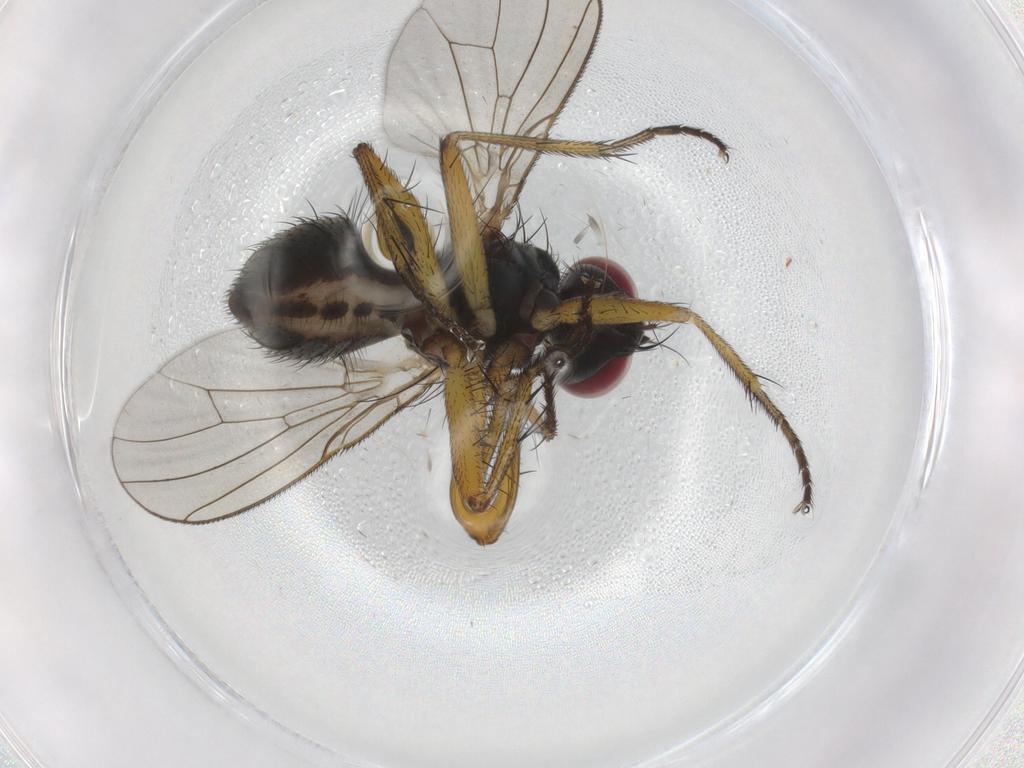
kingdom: Animalia
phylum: Arthropoda
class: Insecta
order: Diptera
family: Muscidae
